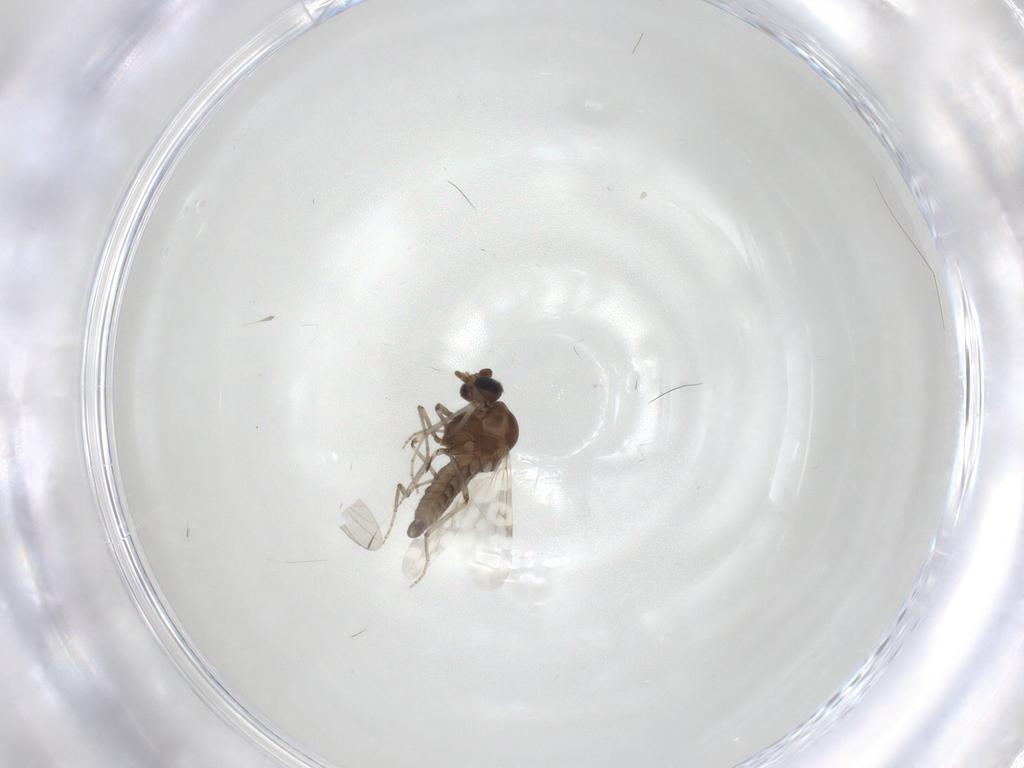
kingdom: Animalia
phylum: Arthropoda
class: Insecta
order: Diptera
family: Chironomidae
